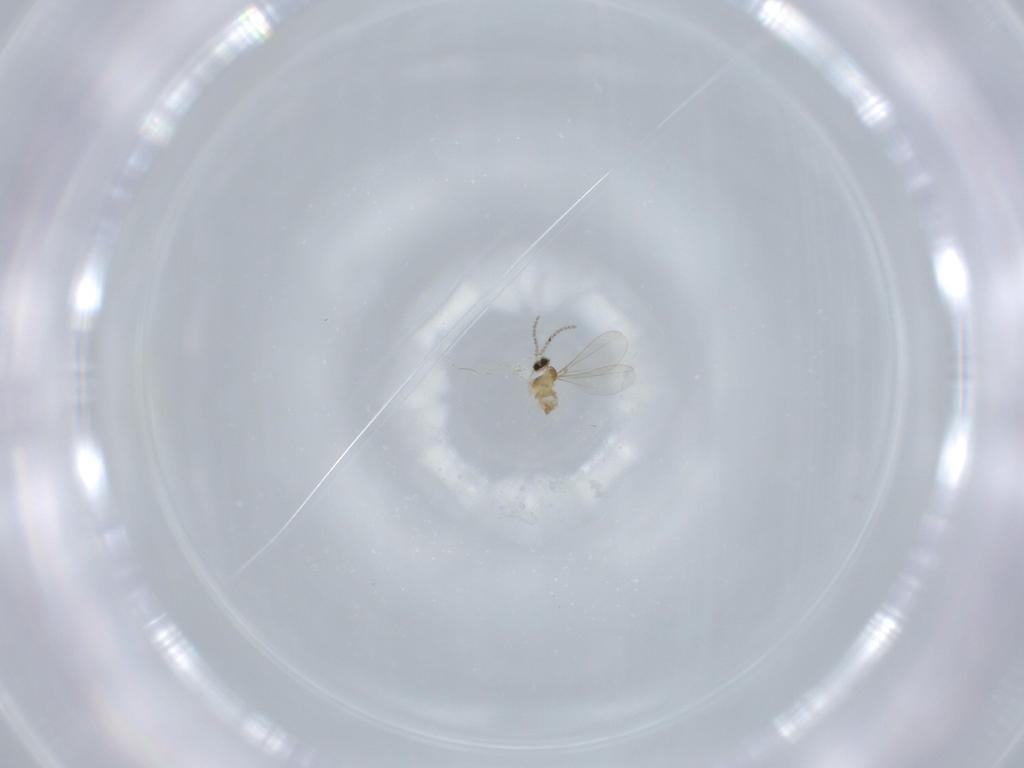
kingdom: Animalia
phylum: Arthropoda
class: Insecta
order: Diptera
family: Cecidomyiidae
